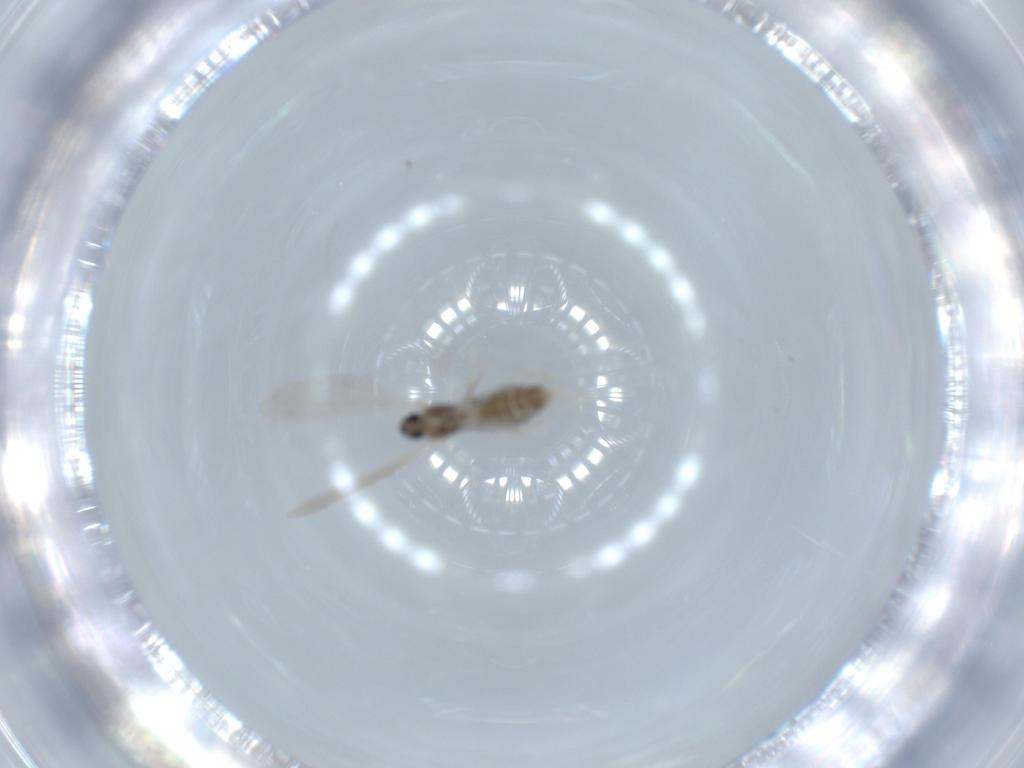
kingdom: Animalia
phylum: Arthropoda
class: Insecta
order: Diptera
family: Cecidomyiidae
